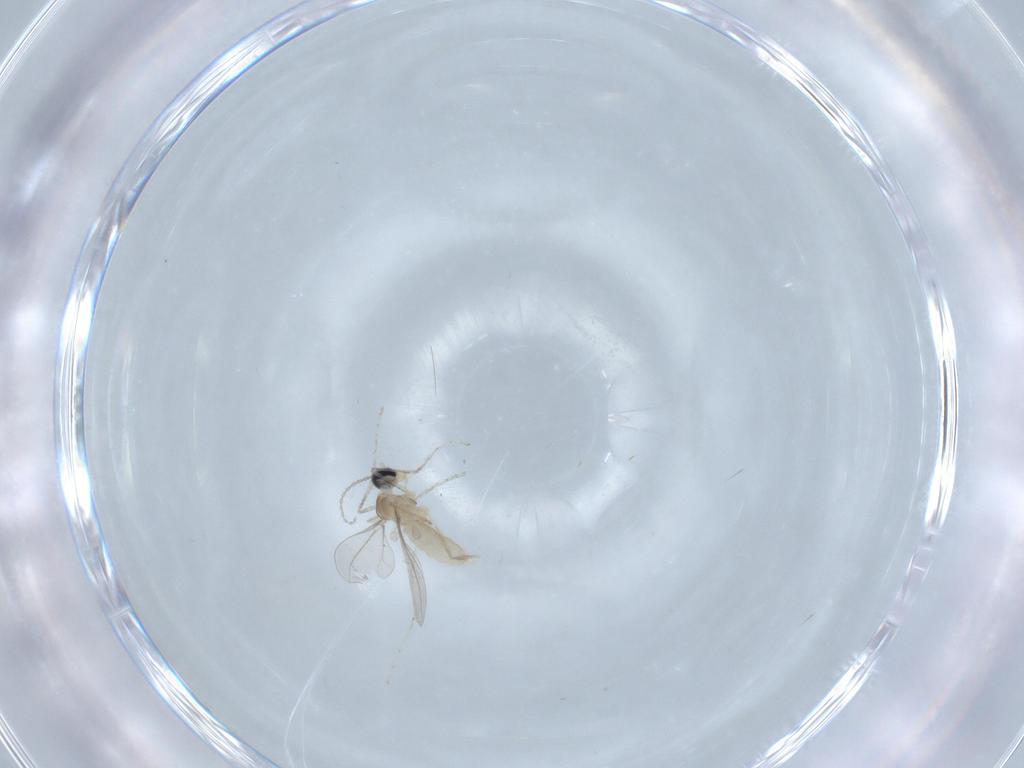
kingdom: Animalia
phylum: Arthropoda
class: Insecta
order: Diptera
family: Cecidomyiidae
